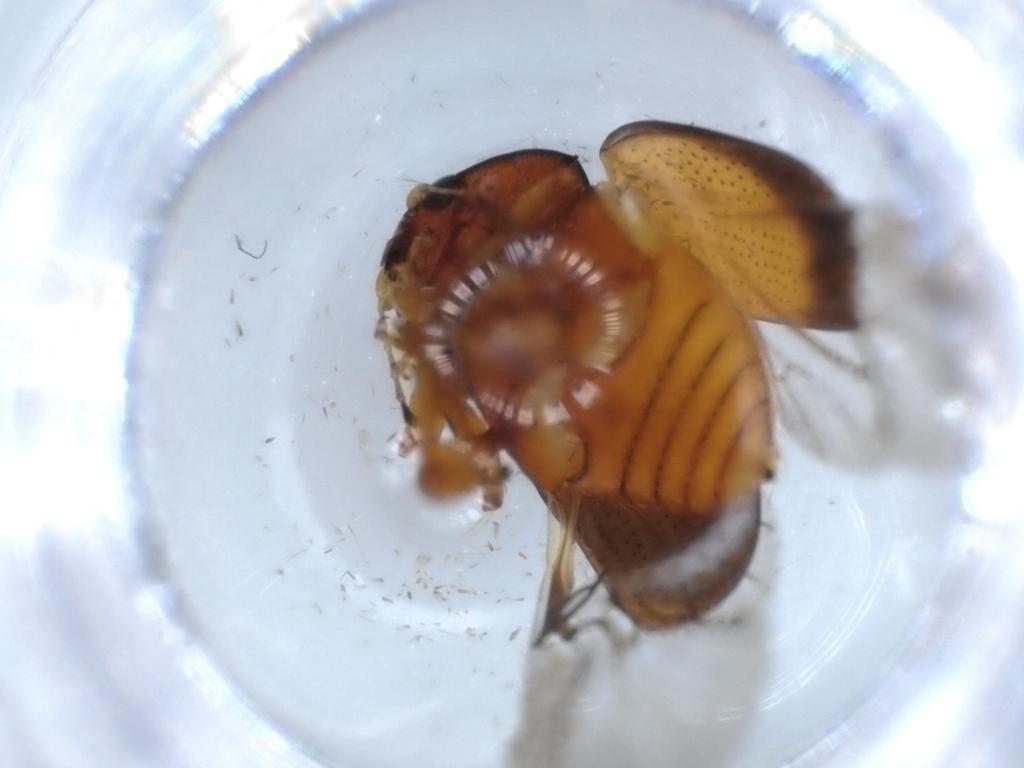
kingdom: Animalia
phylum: Arthropoda
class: Insecta
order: Coleoptera
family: Chrysomelidae
